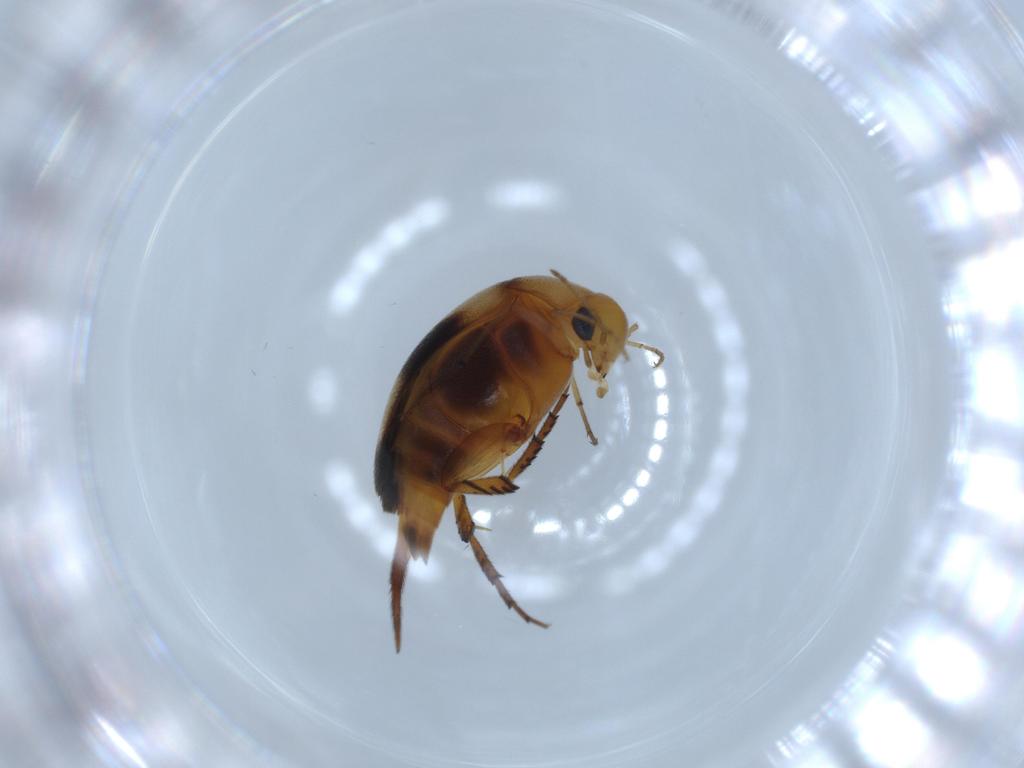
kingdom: Animalia
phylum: Arthropoda
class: Insecta
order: Coleoptera
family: Mordellidae
